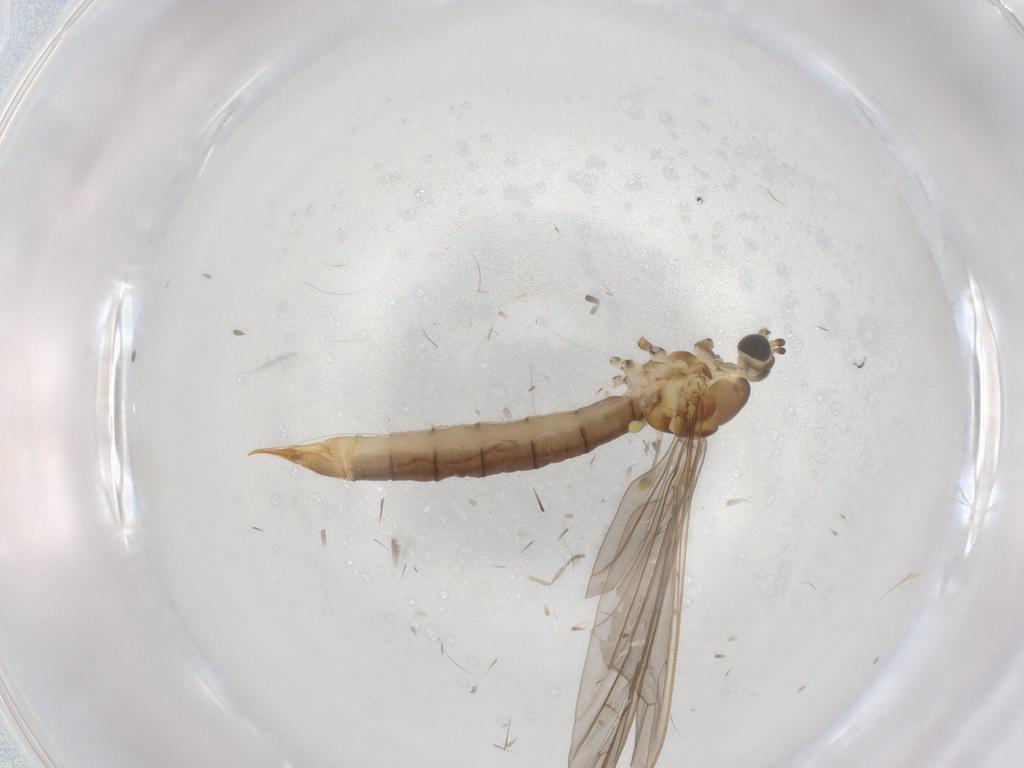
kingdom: Animalia
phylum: Arthropoda
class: Insecta
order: Diptera
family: Limoniidae
